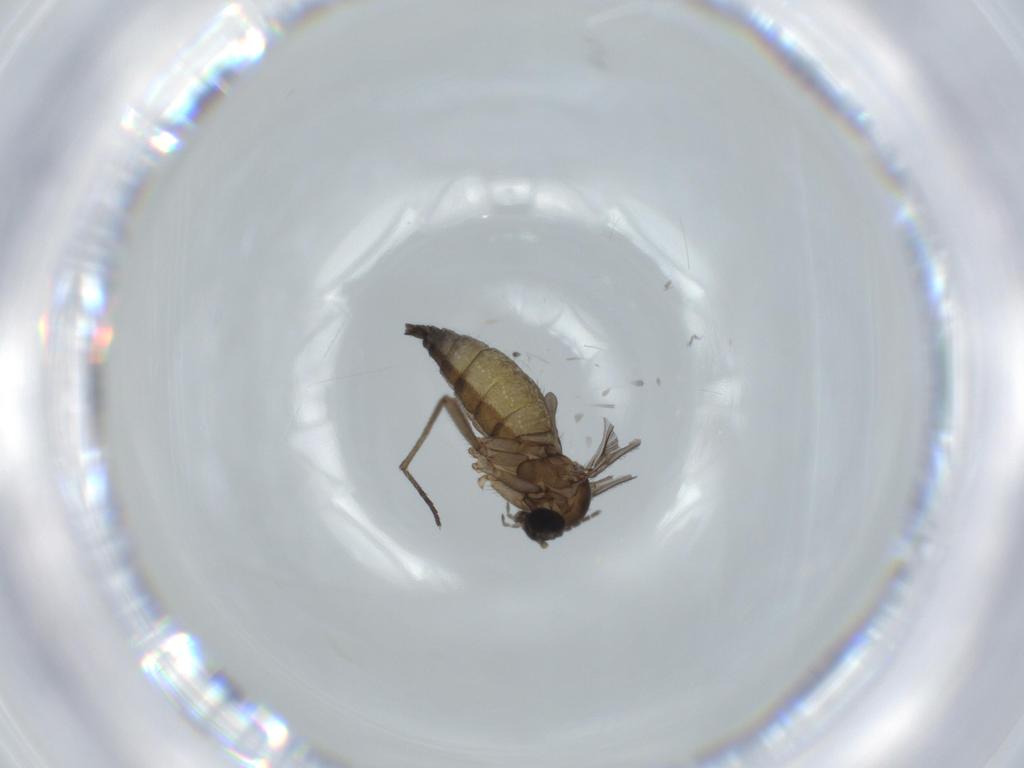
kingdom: Animalia
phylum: Arthropoda
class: Insecta
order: Diptera
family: Sciaridae
